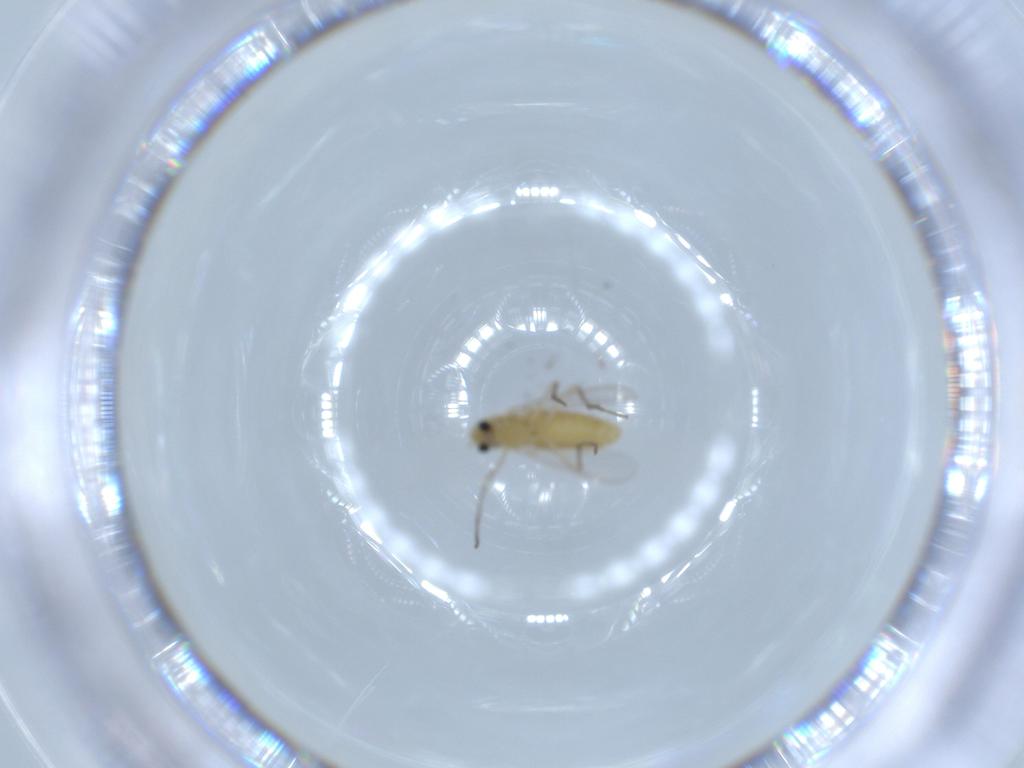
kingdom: Animalia
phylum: Arthropoda
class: Insecta
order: Diptera
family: Chironomidae
